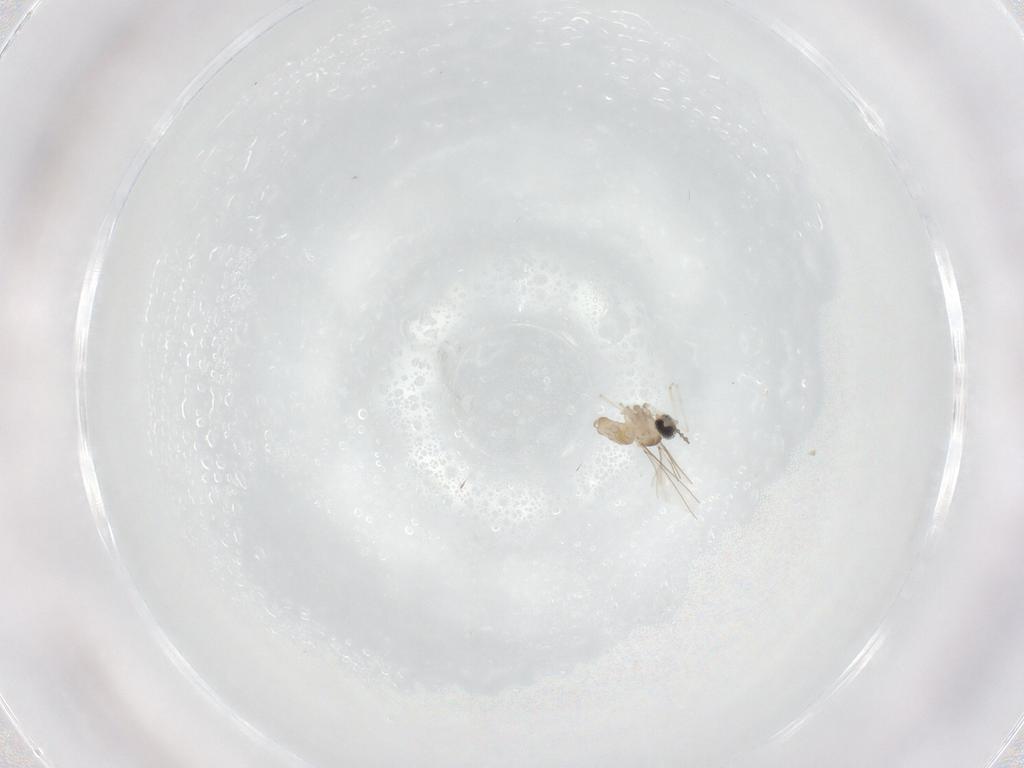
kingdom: Animalia
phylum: Arthropoda
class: Insecta
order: Diptera
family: Cecidomyiidae
